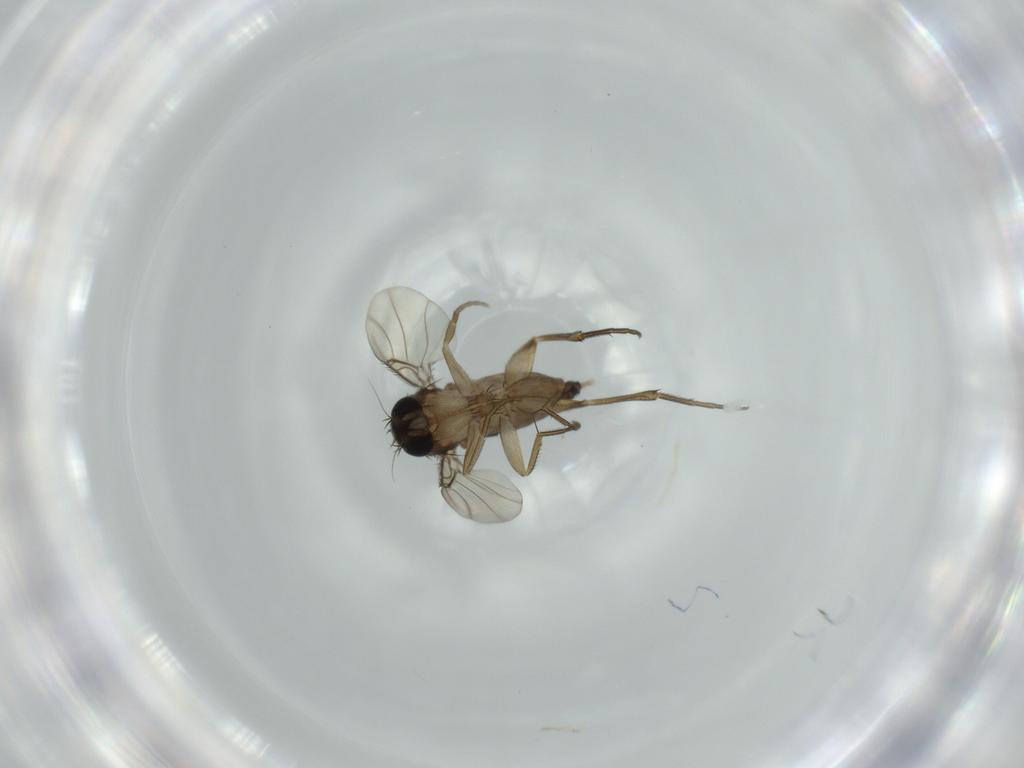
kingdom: Animalia
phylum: Arthropoda
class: Insecta
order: Diptera
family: Phoridae
